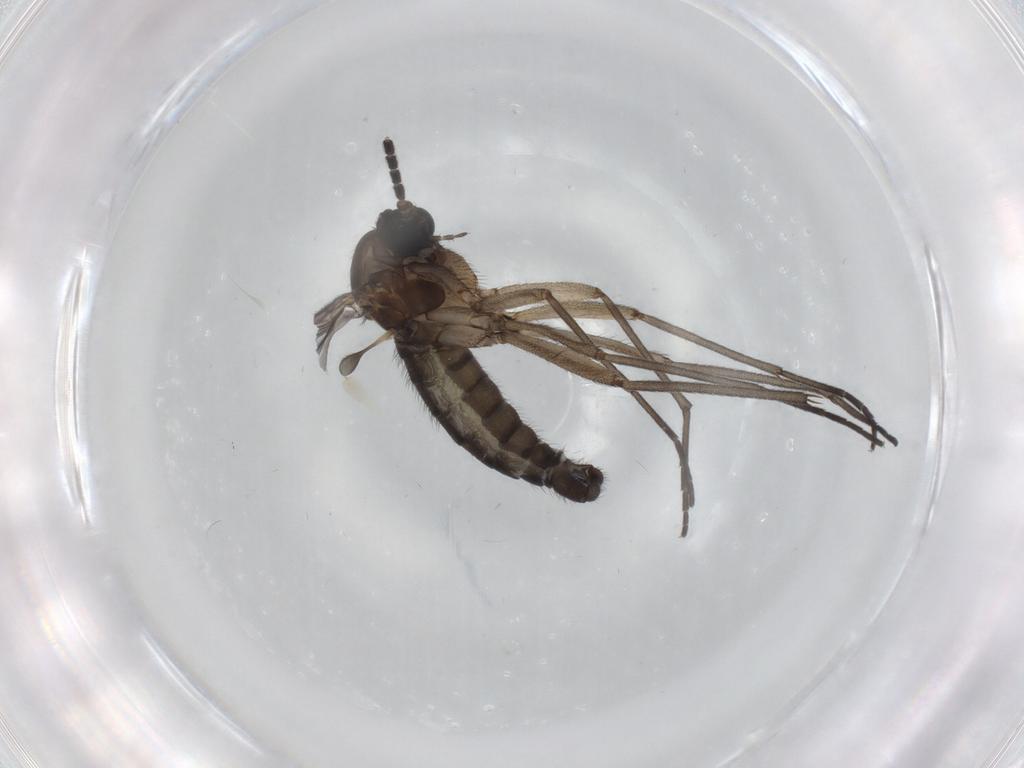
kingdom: Animalia
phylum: Arthropoda
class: Insecta
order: Diptera
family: Sciaridae
